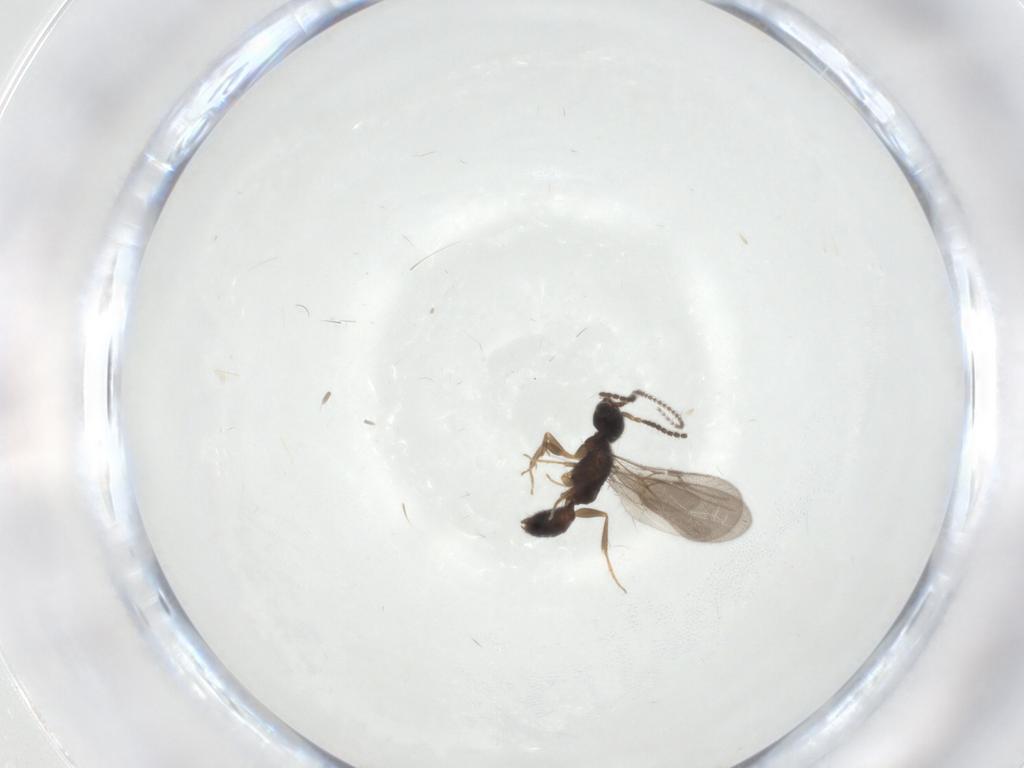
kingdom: Animalia
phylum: Arthropoda
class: Insecta
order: Hymenoptera
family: Bethylidae
